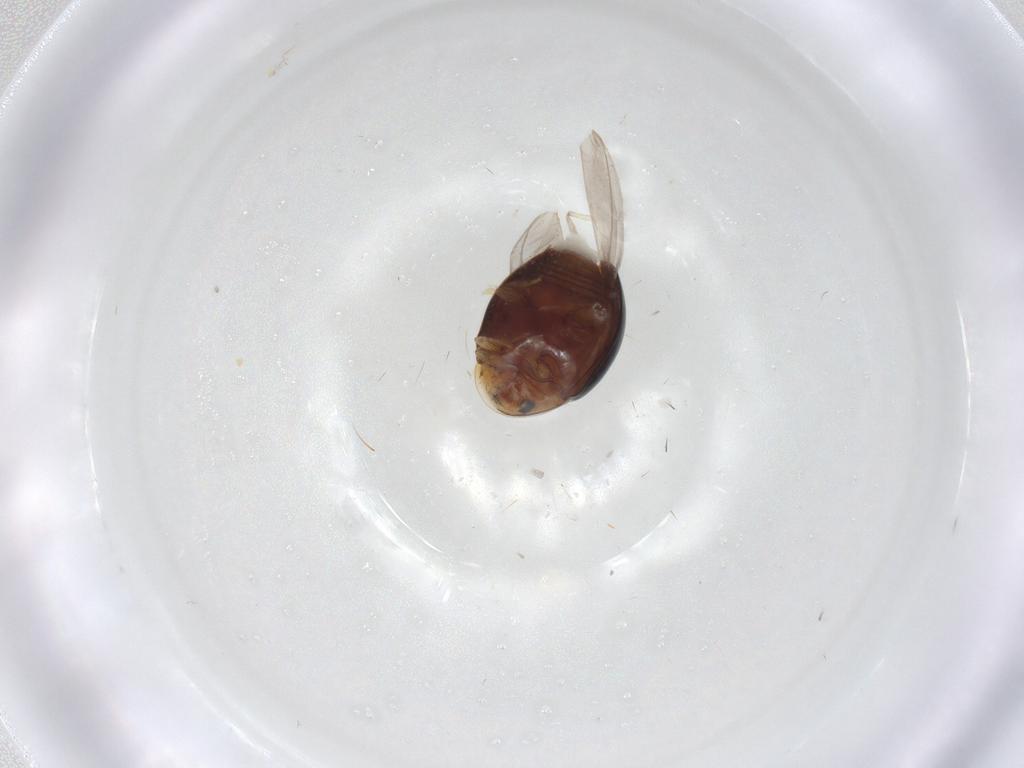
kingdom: Animalia
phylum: Arthropoda
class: Insecta
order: Coleoptera
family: Corylophidae
